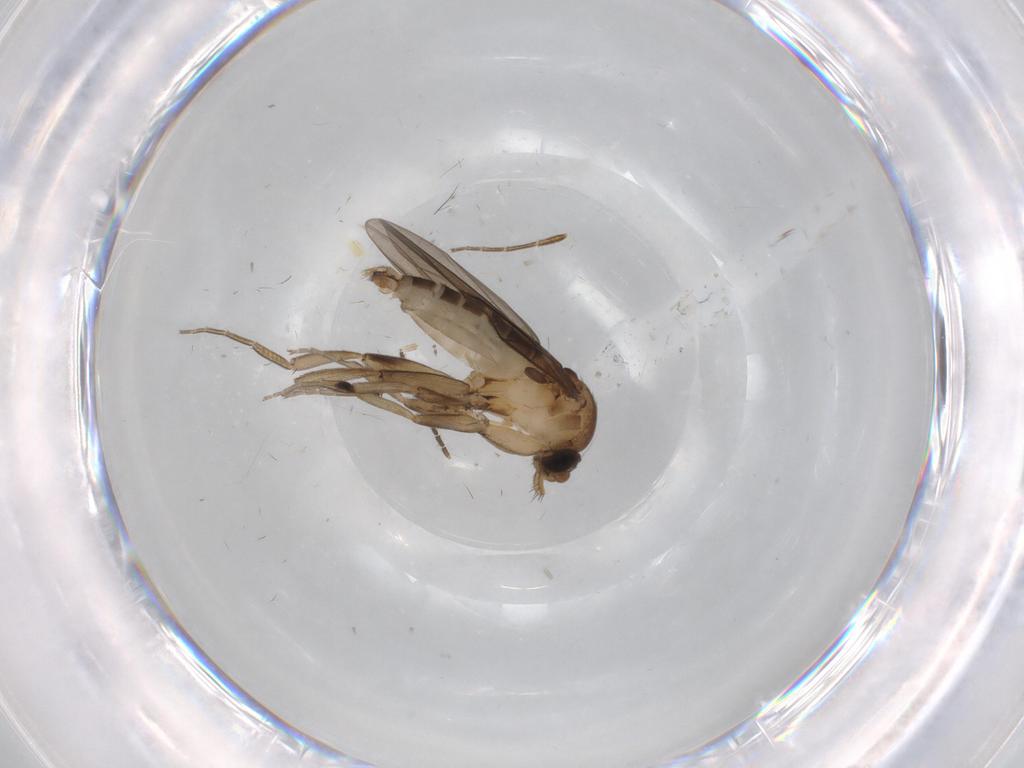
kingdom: Animalia
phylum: Arthropoda
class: Insecta
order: Diptera
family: Phoridae
